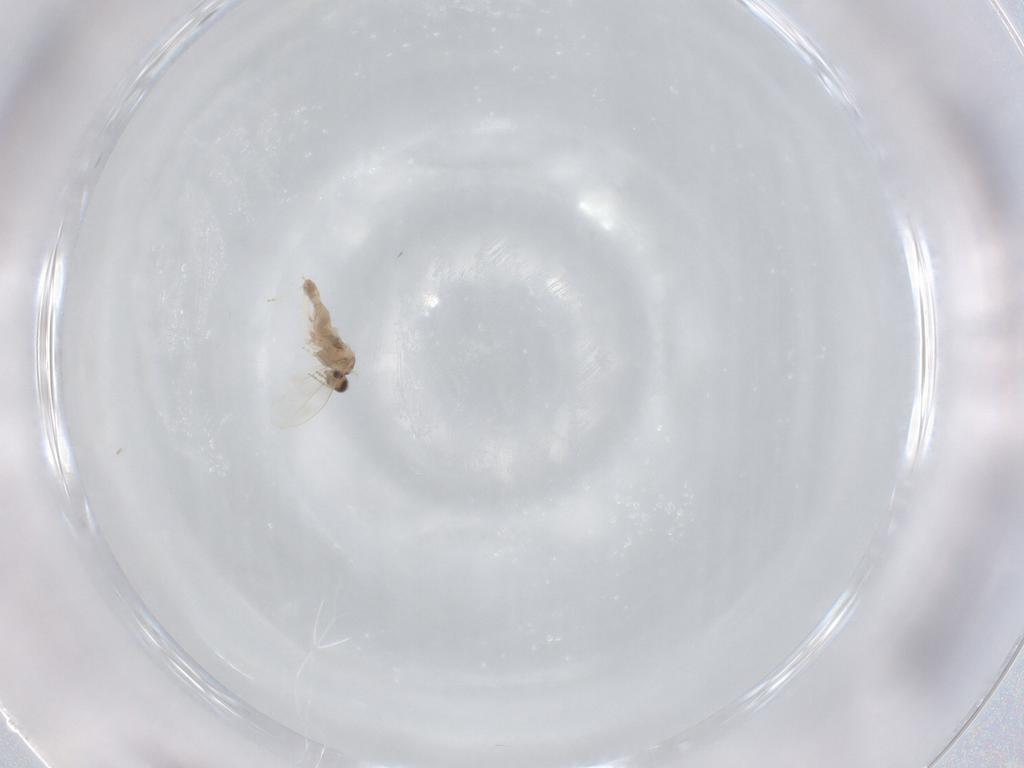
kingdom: Animalia
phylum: Arthropoda
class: Insecta
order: Diptera
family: Cecidomyiidae
